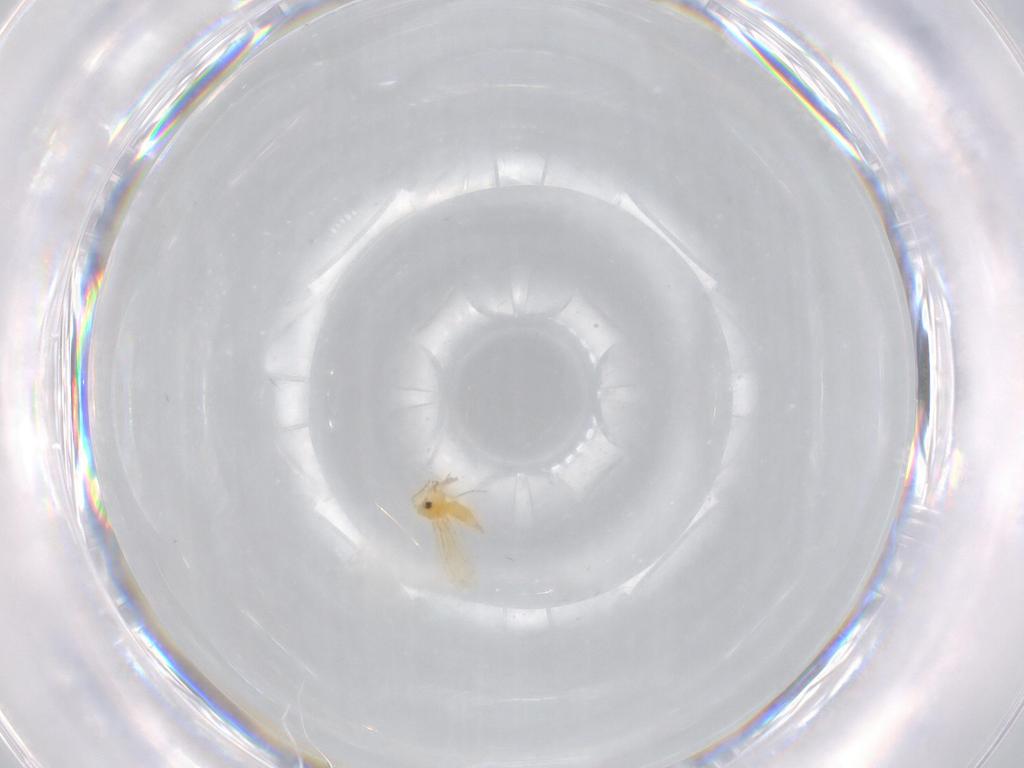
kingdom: Animalia
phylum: Arthropoda
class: Insecta
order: Hemiptera
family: Aleyrodidae
